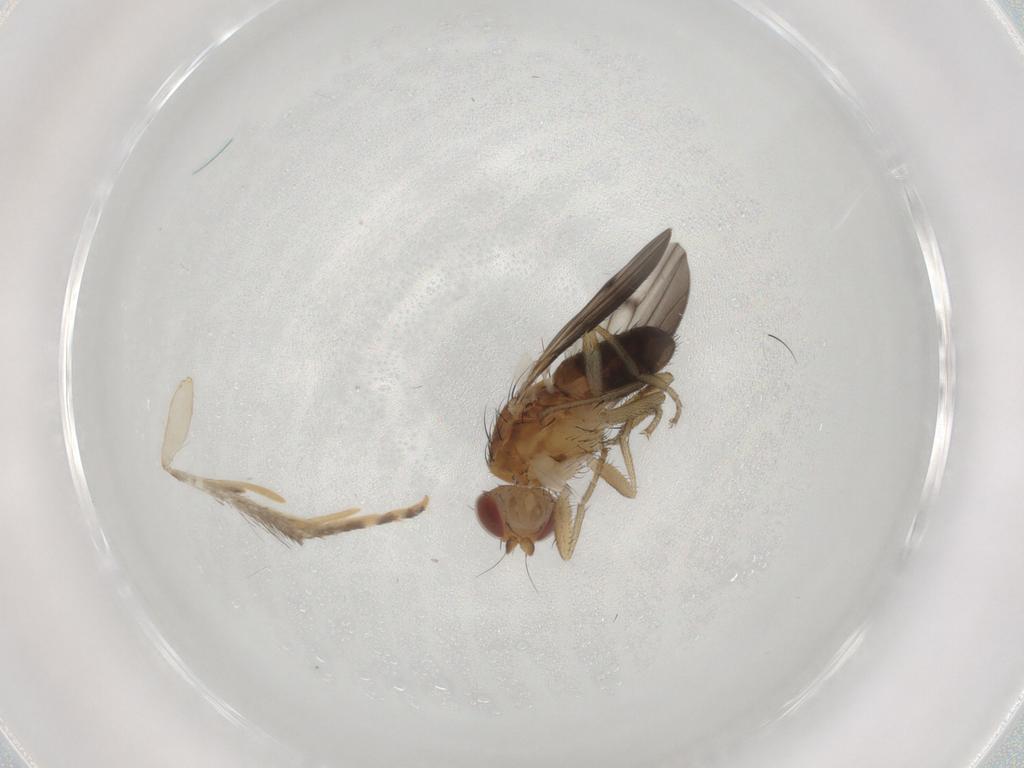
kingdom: Animalia
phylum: Arthropoda
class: Insecta
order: Diptera
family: Heleomyzidae
